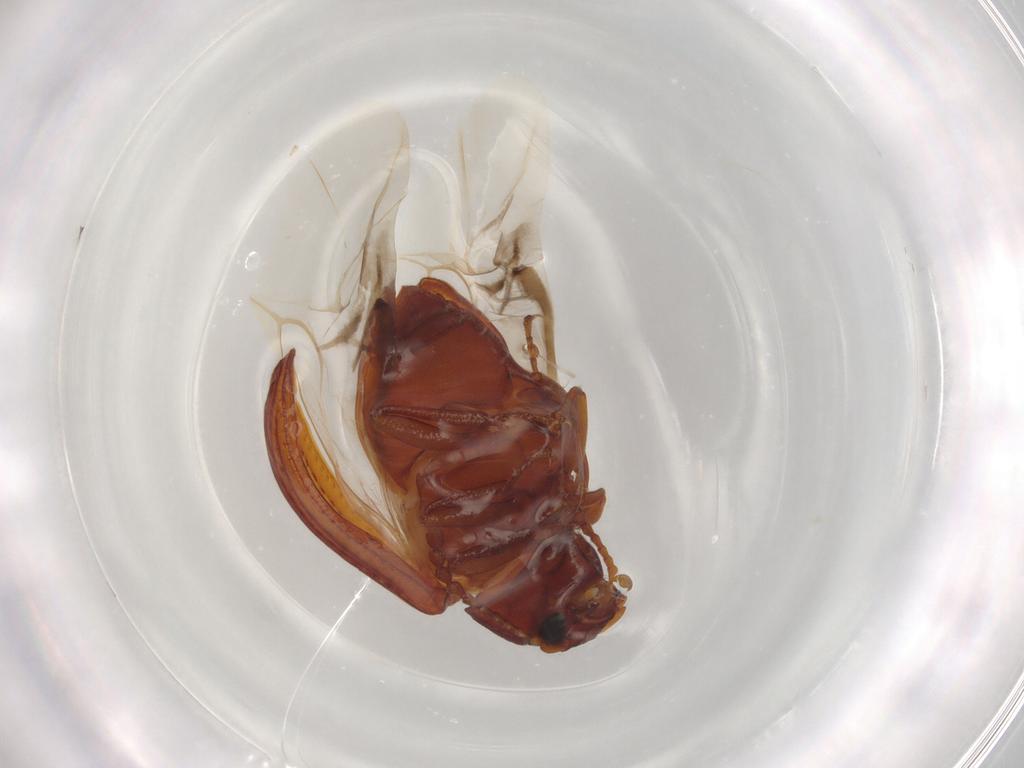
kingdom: Animalia
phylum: Arthropoda
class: Insecta
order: Coleoptera
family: Tenebrionidae
